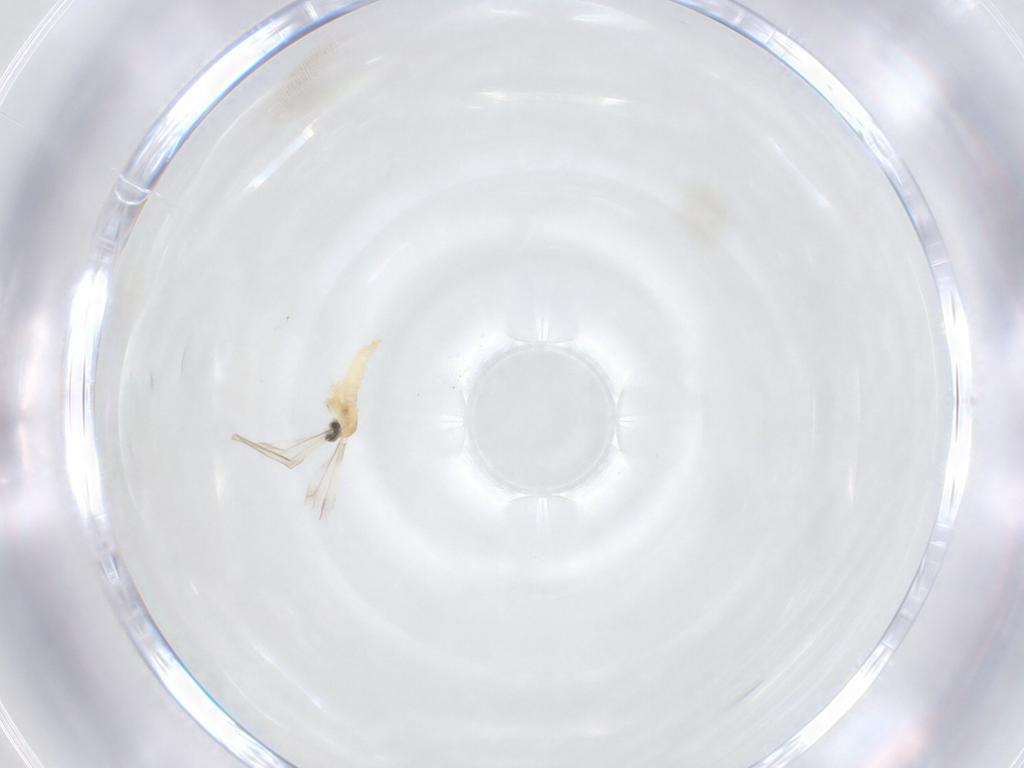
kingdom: Animalia
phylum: Arthropoda
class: Insecta
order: Diptera
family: Cecidomyiidae
